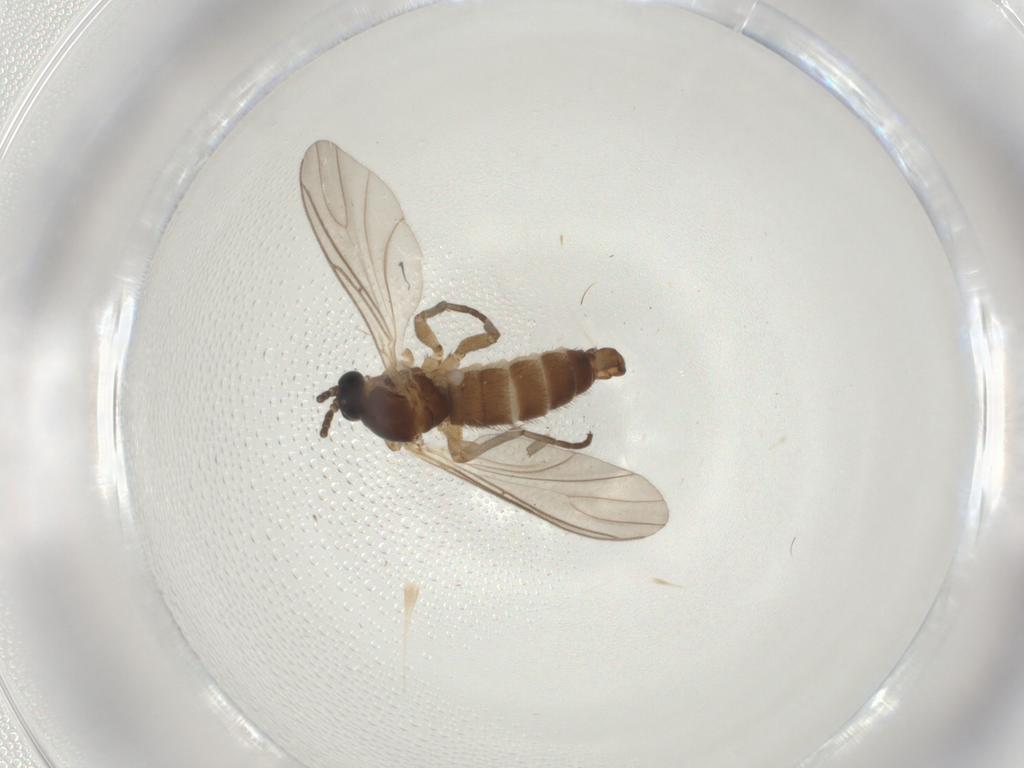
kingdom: Animalia
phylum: Arthropoda
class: Insecta
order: Diptera
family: Sciaridae
